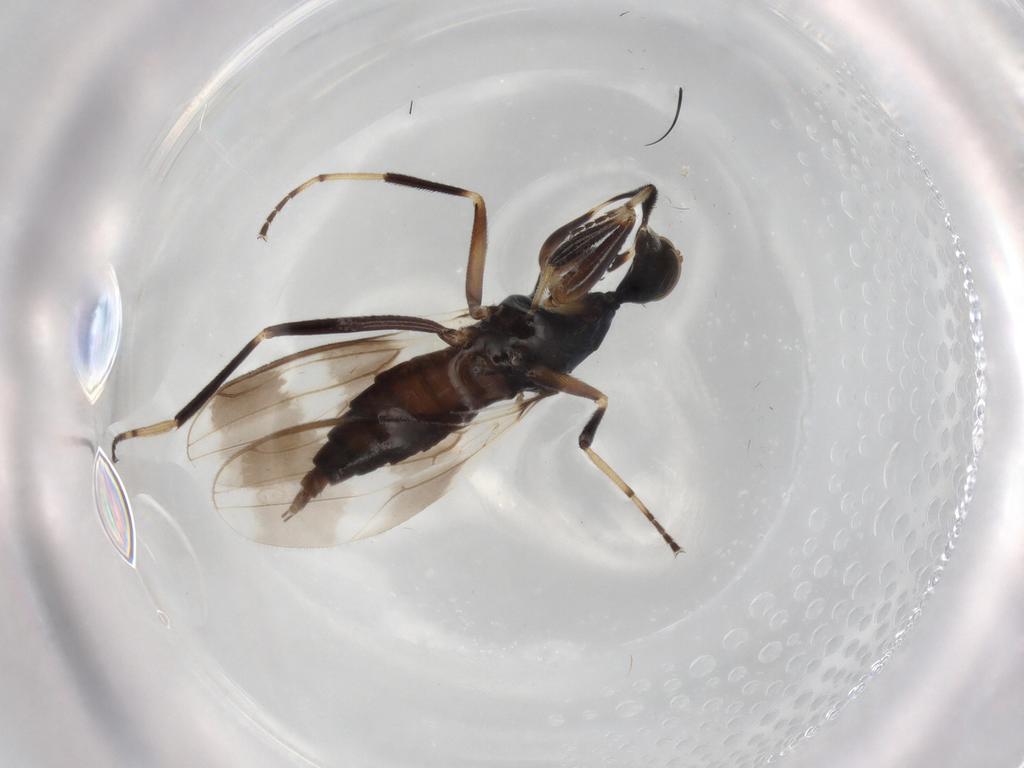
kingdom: Animalia
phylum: Arthropoda
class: Insecta
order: Diptera
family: Hybotidae
